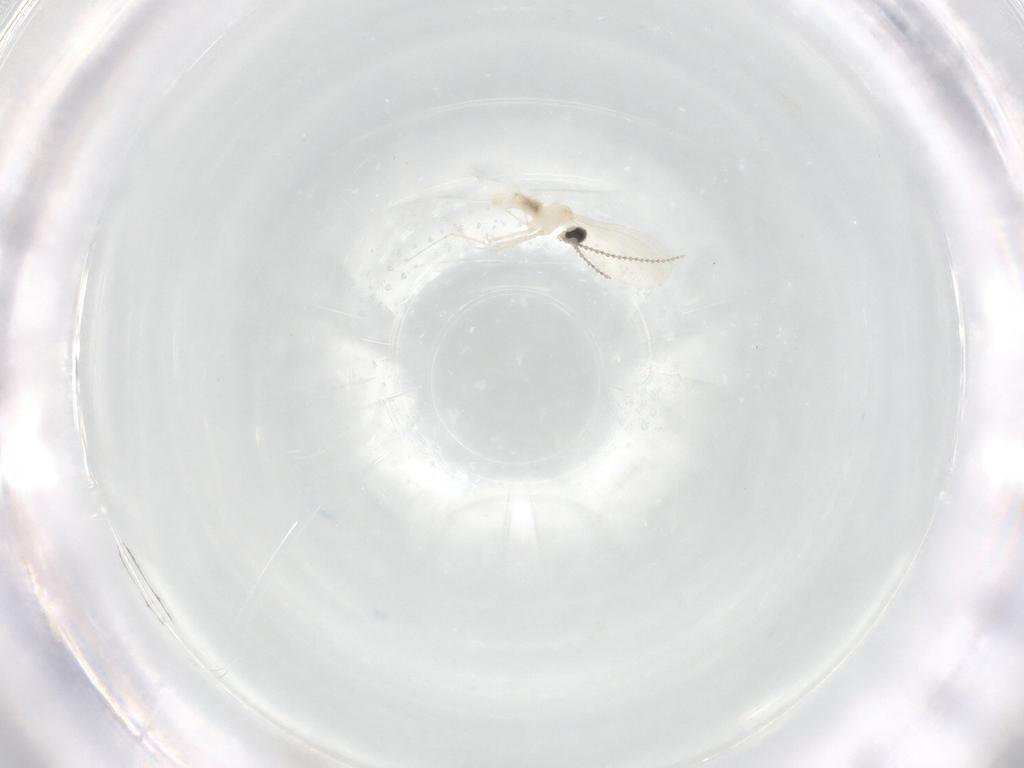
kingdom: Animalia
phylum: Arthropoda
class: Insecta
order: Diptera
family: Cecidomyiidae
